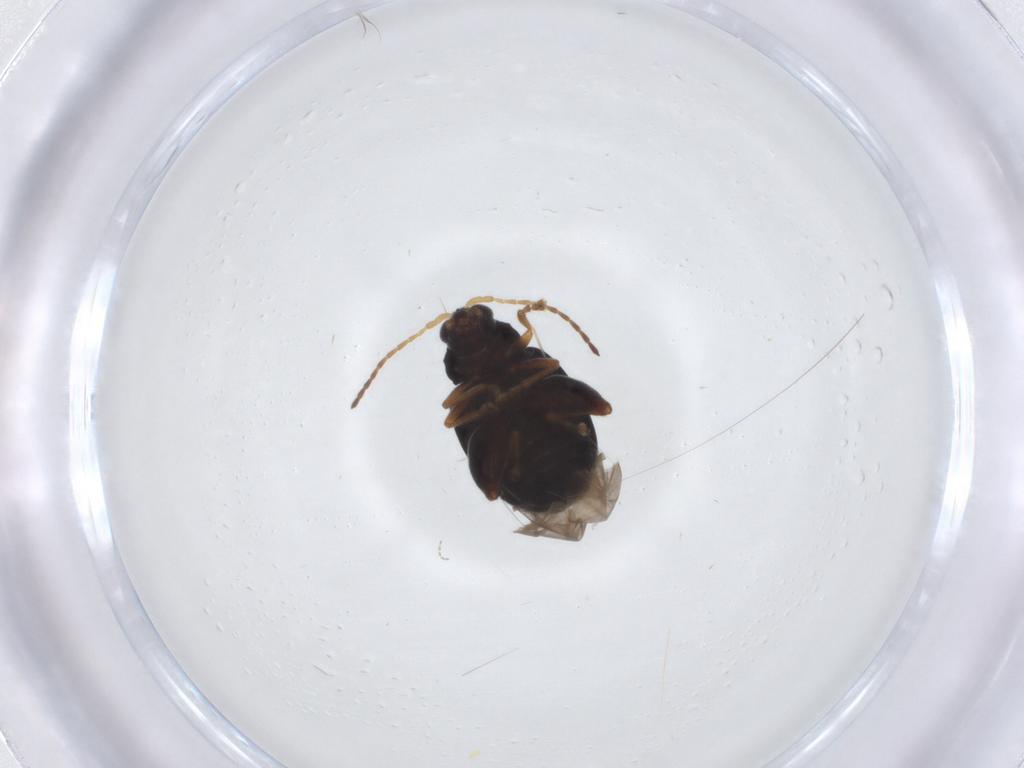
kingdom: Animalia
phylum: Arthropoda
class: Insecta
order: Coleoptera
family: Chrysomelidae
